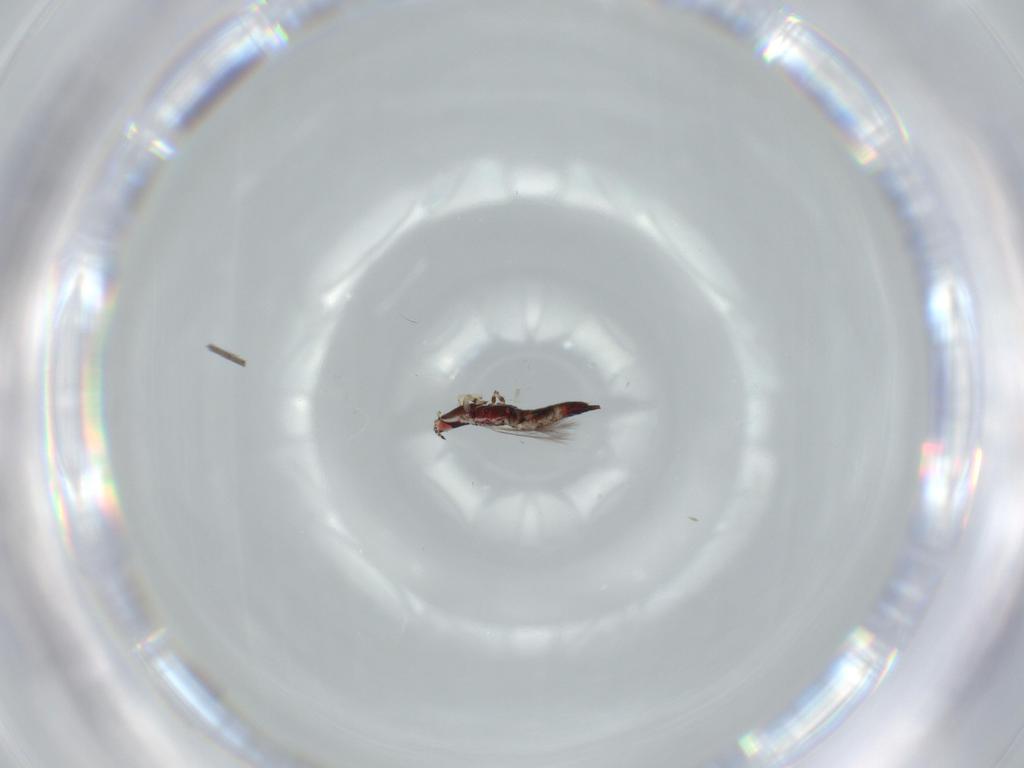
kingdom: Animalia
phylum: Arthropoda
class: Insecta
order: Thysanoptera
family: Phlaeothripidae
